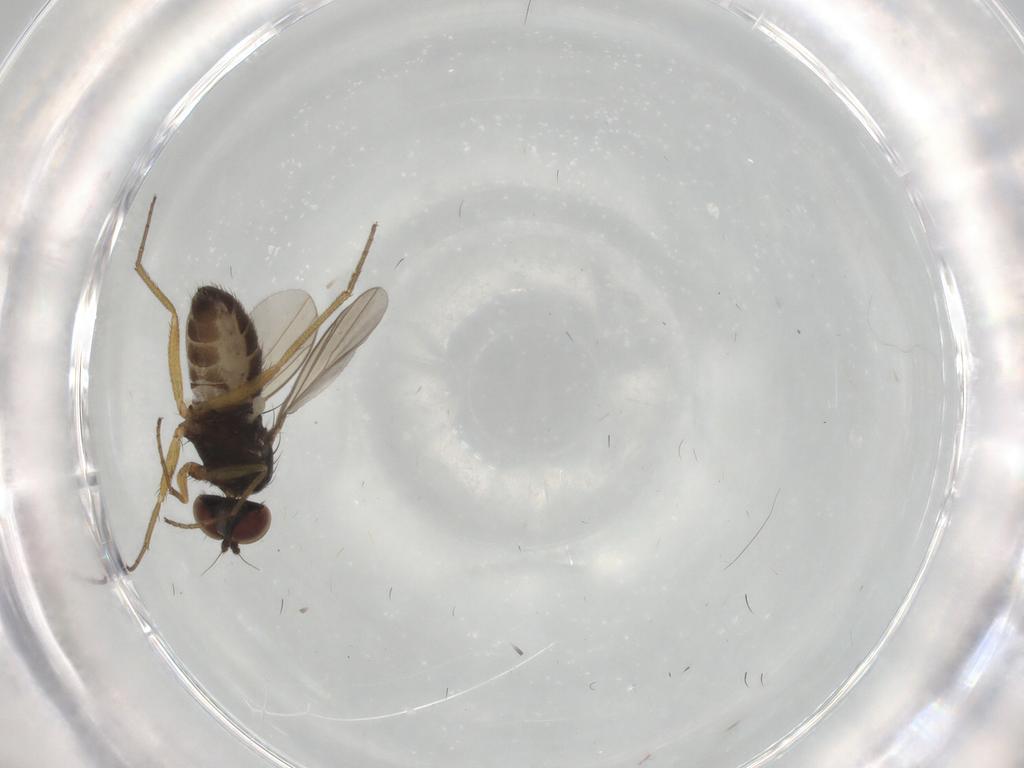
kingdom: Animalia
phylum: Arthropoda
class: Insecta
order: Diptera
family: Dolichopodidae
